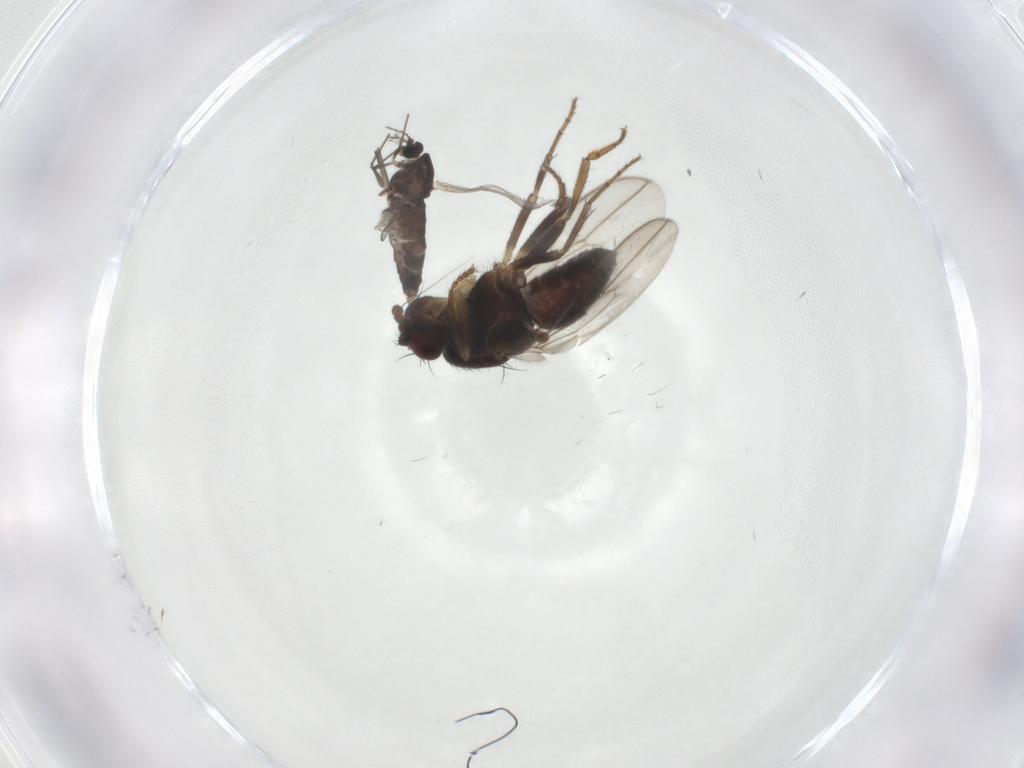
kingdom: Animalia
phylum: Arthropoda
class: Insecta
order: Diptera
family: Sphaeroceridae
